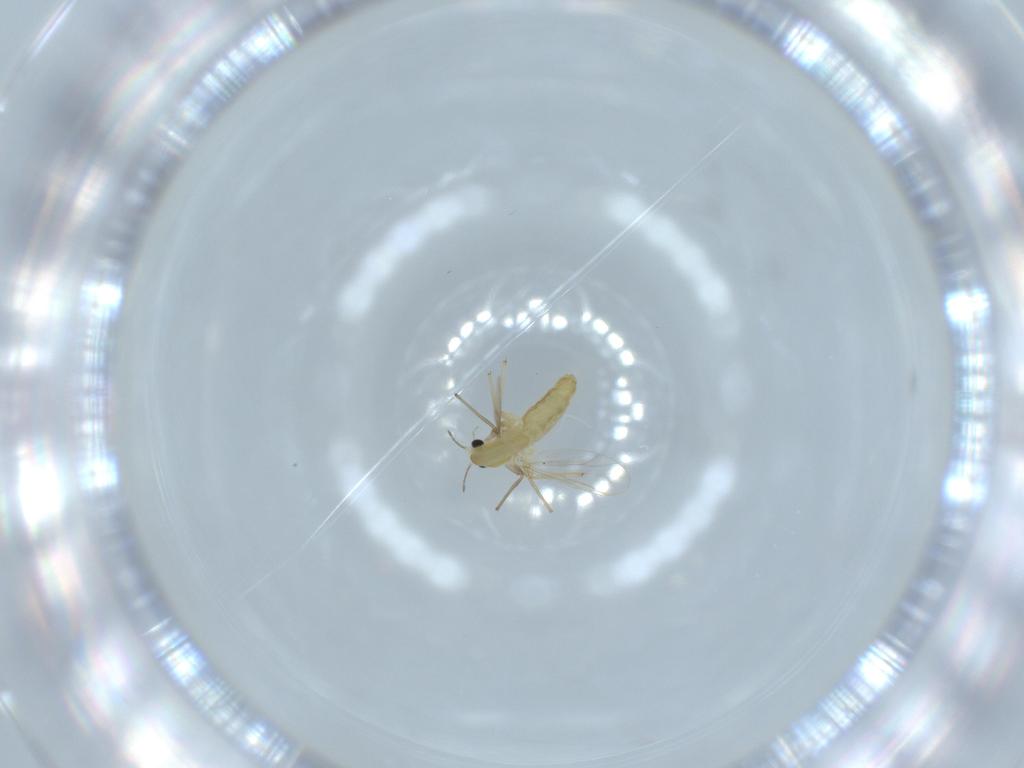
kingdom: Animalia
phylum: Arthropoda
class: Insecta
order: Diptera
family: Chironomidae
